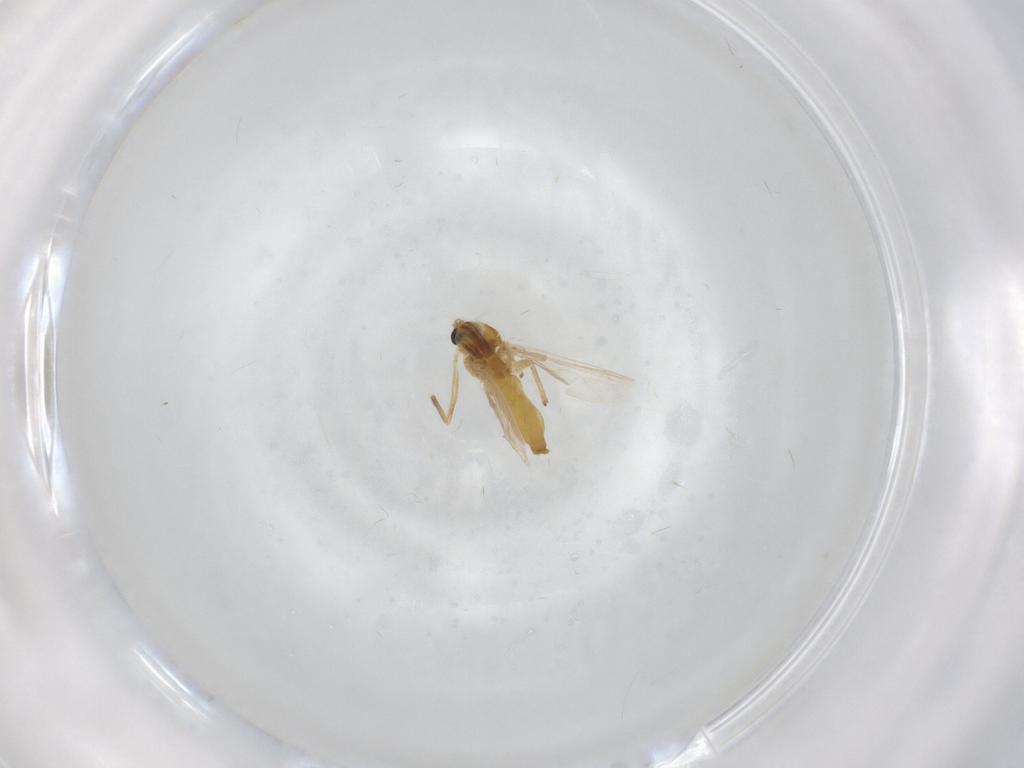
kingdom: Animalia
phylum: Arthropoda
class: Insecta
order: Diptera
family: Chironomidae
